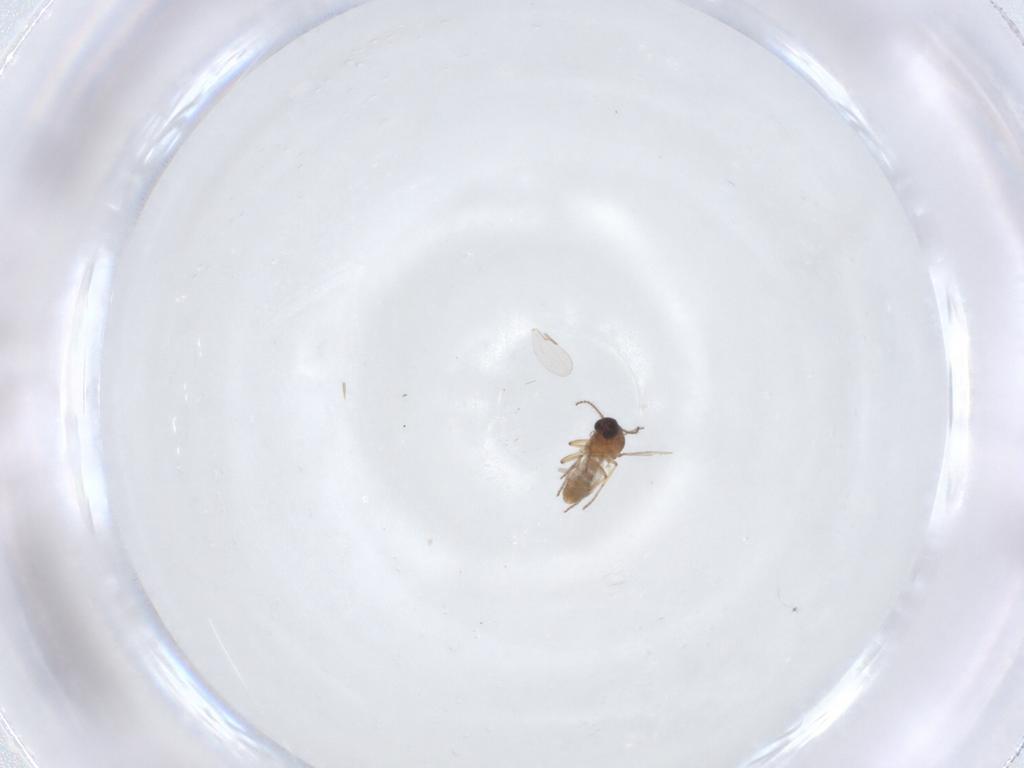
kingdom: Animalia
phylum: Arthropoda
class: Insecta
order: Diptera
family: Ceratopogonidae
